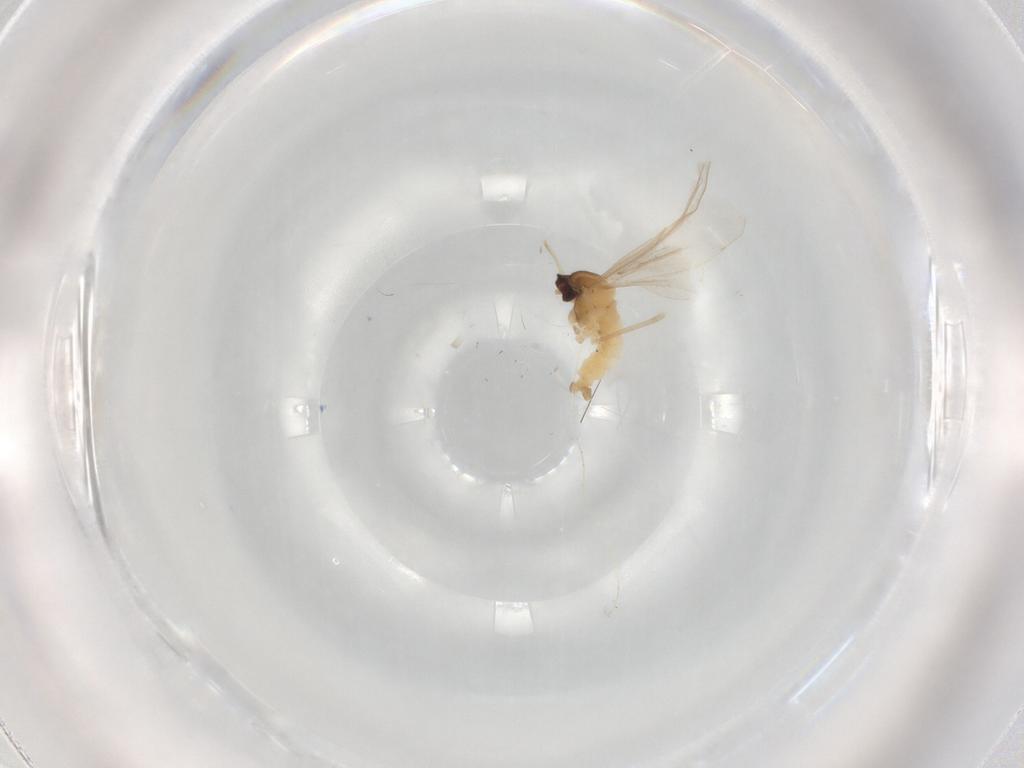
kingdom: Animalia
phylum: Arthropoda
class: Insecta
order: Diptera
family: Cecidomyiidae
